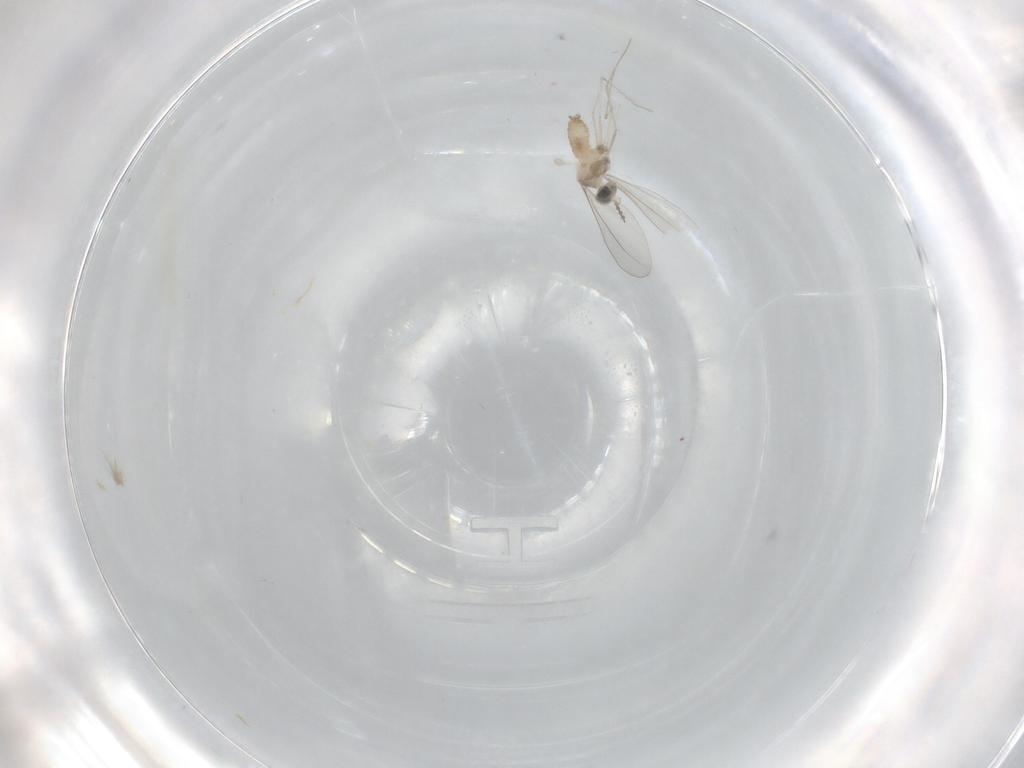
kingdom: Animalia
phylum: Arthropoda
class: Insecta
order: Diptera
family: Cecidomyiidae
